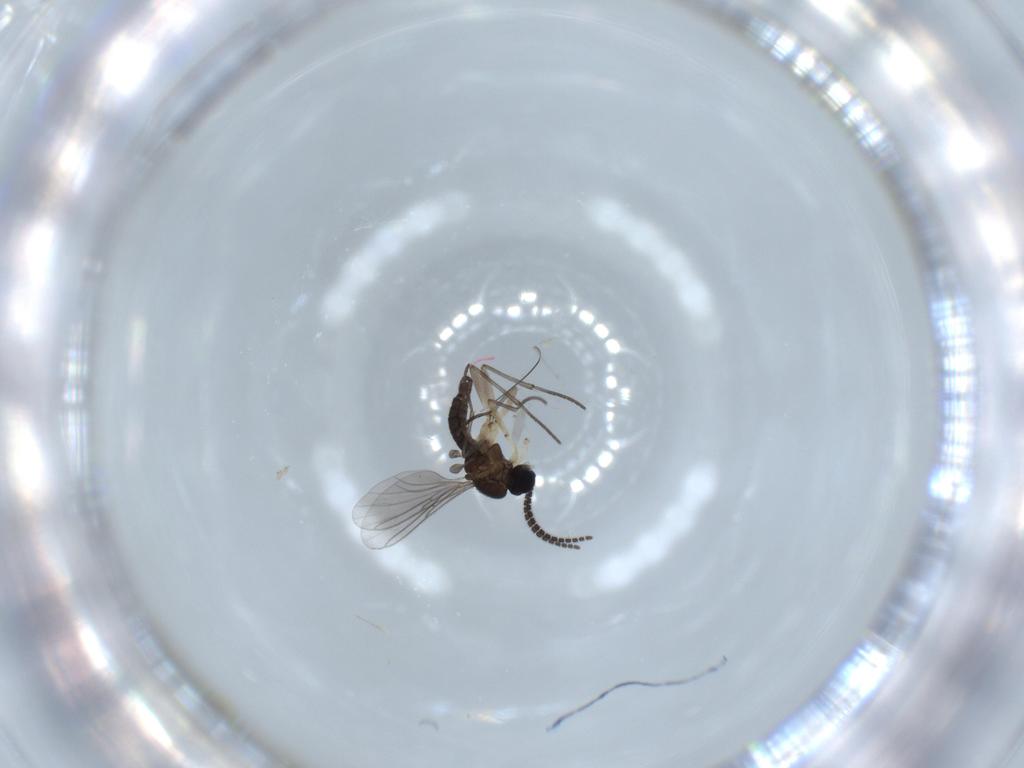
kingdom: Animalia
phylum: Arthropoda
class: Insecta
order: Diptera
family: Sciaridae
